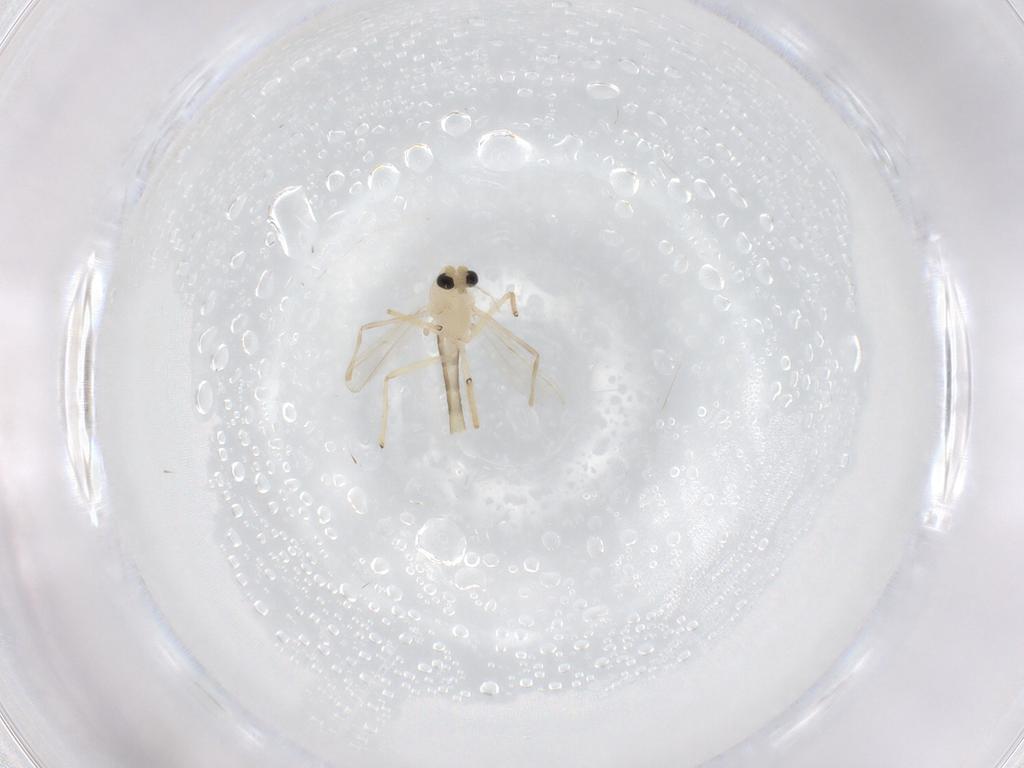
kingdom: Animalia
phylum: Arthropoda
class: Insecta
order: Diptera
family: Chironomidae
